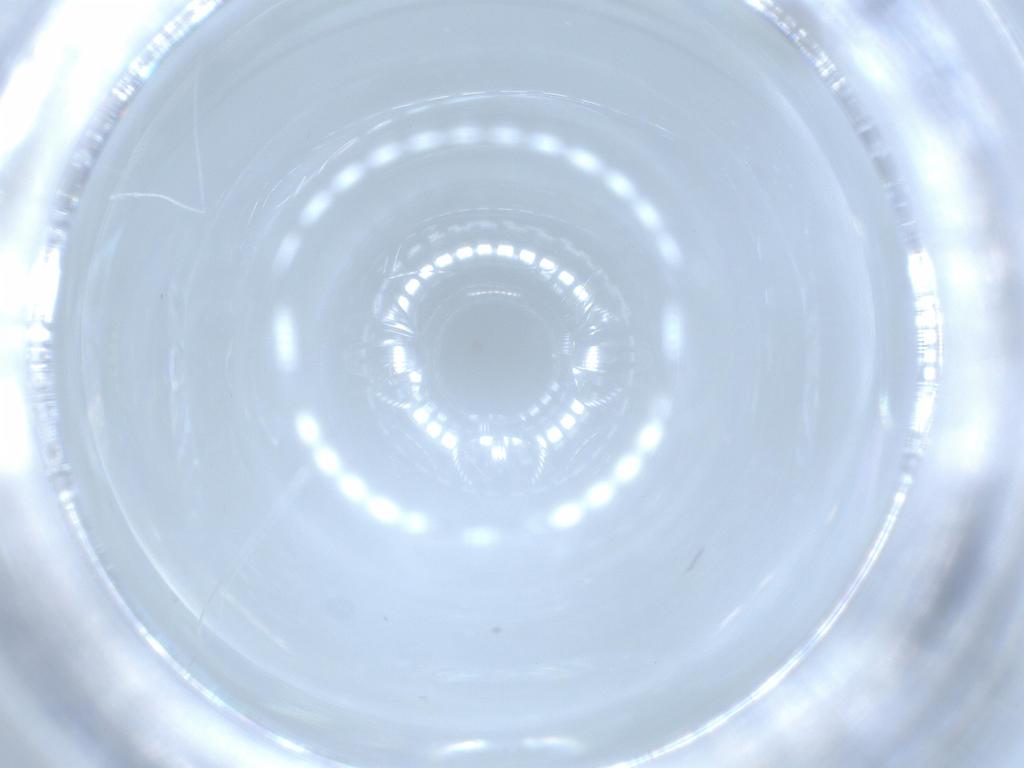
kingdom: Animalia
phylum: Arthropoda
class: Insecta
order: Diptera
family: Cecidomyiidae
